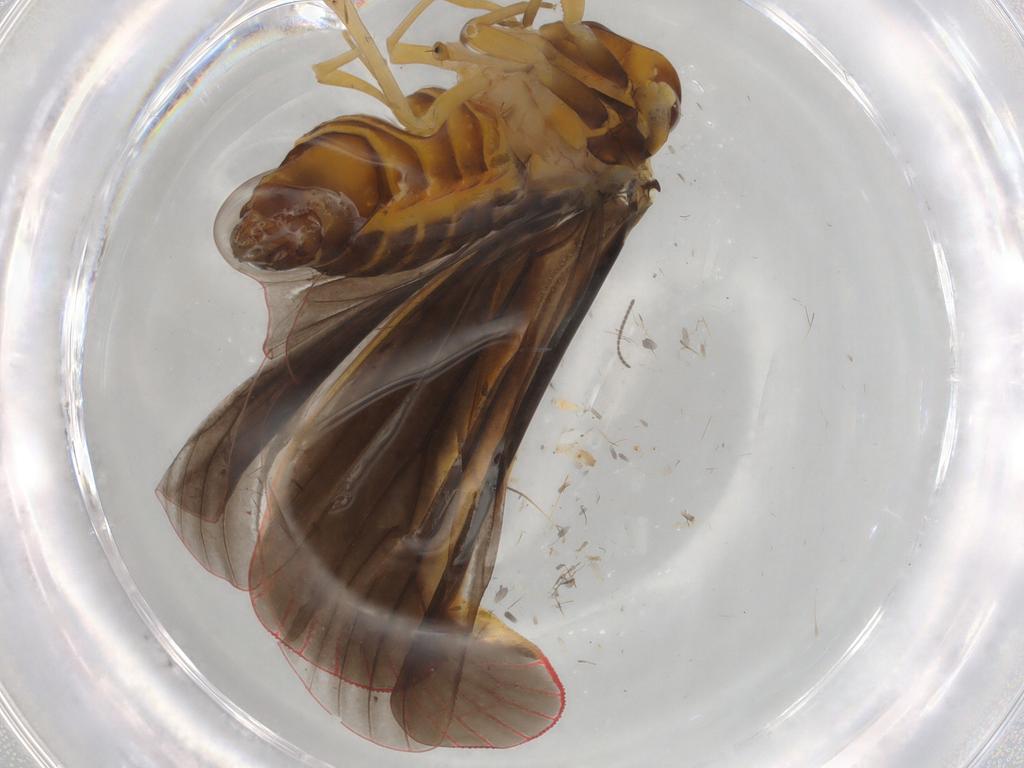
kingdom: Animalia
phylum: Arthropoda
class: Insecta
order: Hemiptera
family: Derbidae
